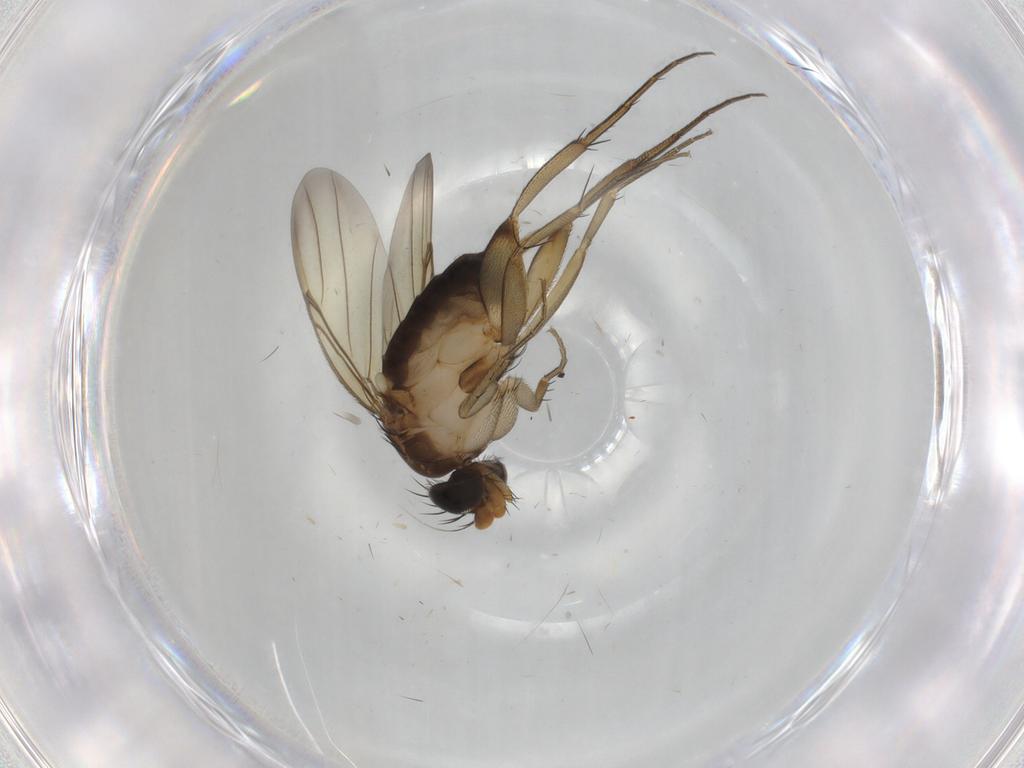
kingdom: Animalia
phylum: Arthropoda
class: Insecta
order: Diptera
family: Phoridae
